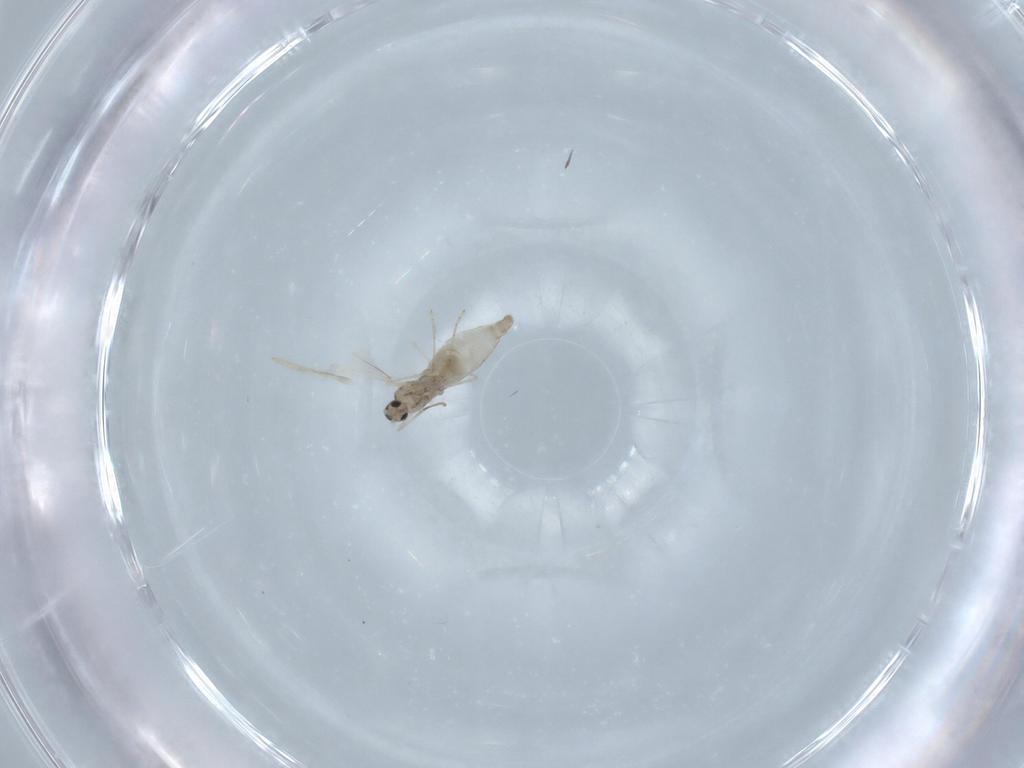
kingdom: Animalia
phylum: Arthropoda
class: Insecta
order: Diptera
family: Cecidomyiidae
